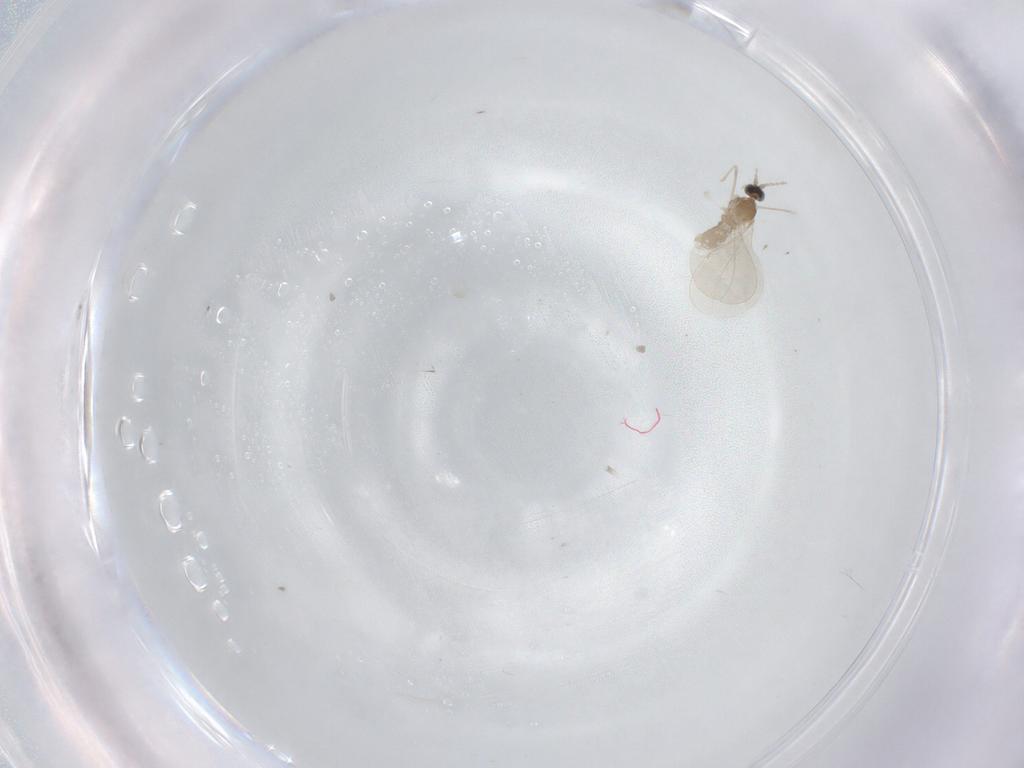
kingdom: Animalia
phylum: Arthropoda
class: Insecta
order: Diptera
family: Cecidomyiidae
